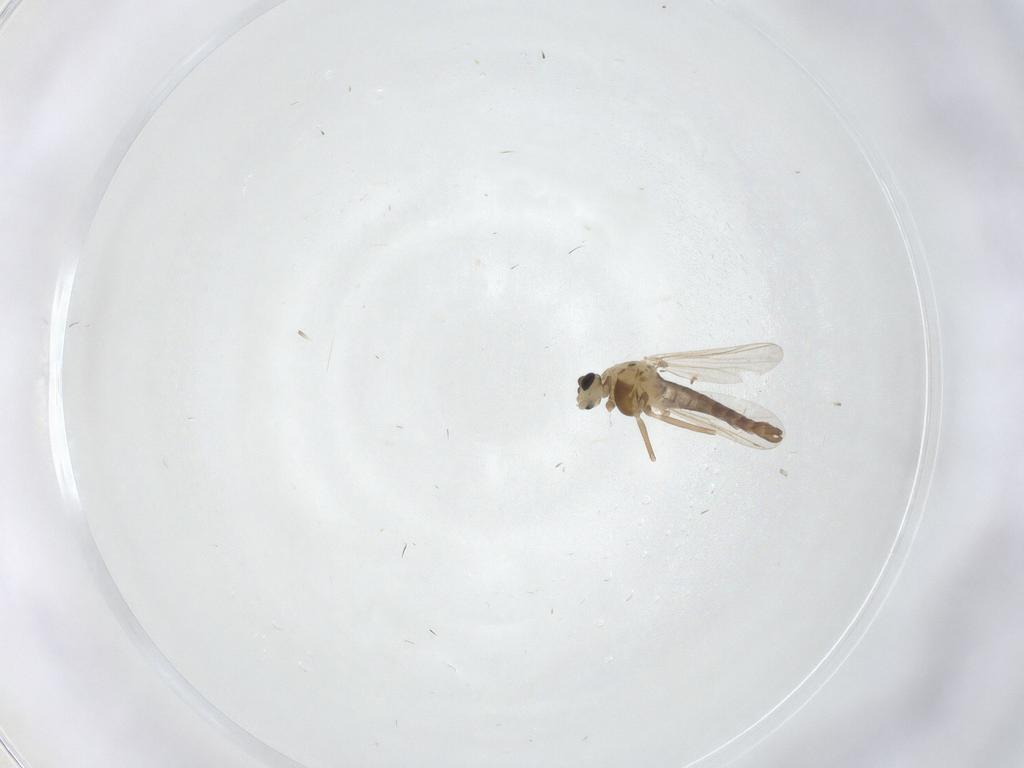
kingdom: Animalia
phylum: Arthropoda
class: Insecta
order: Diptera
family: Chironomidae
